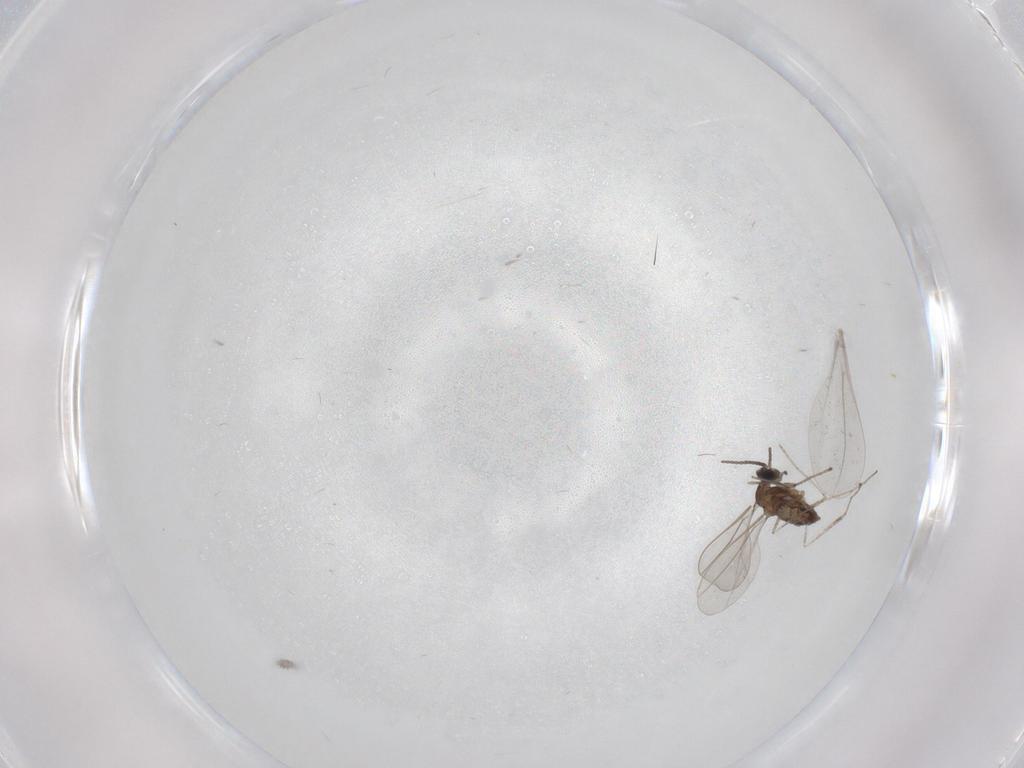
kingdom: Animalia
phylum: Arthropoda
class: Insecta
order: Diptera
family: Cecidomyiidae
